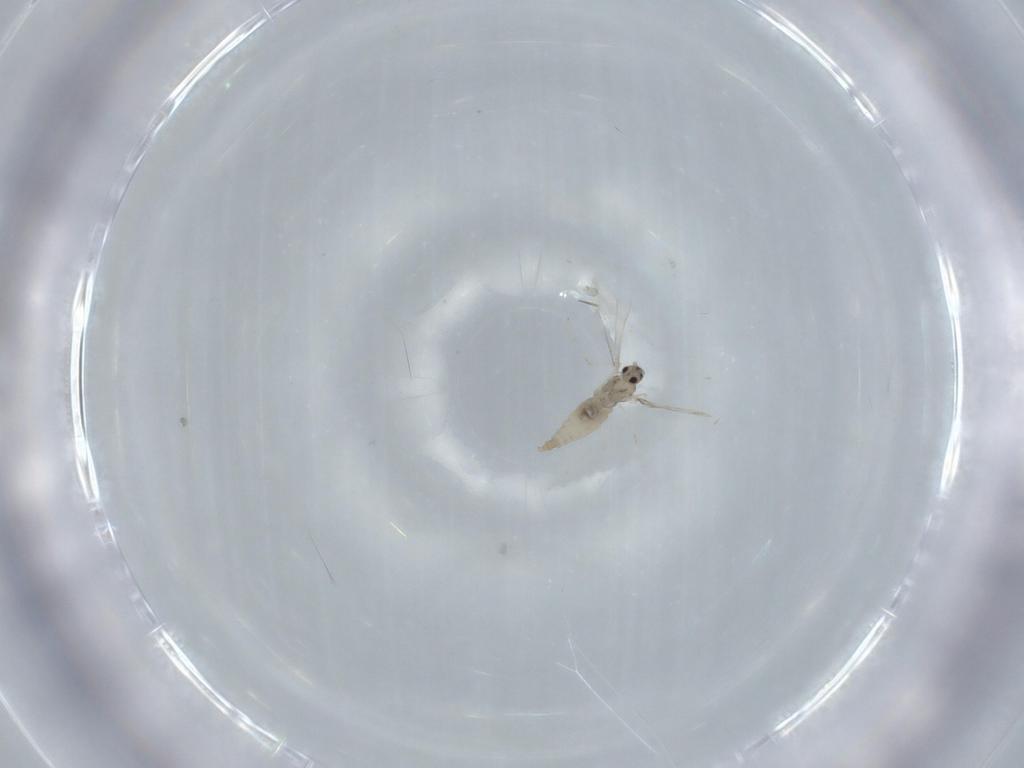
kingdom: Animalia
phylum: Arthropoda
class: Insecta
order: Diptera
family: Cecidomyiidae
